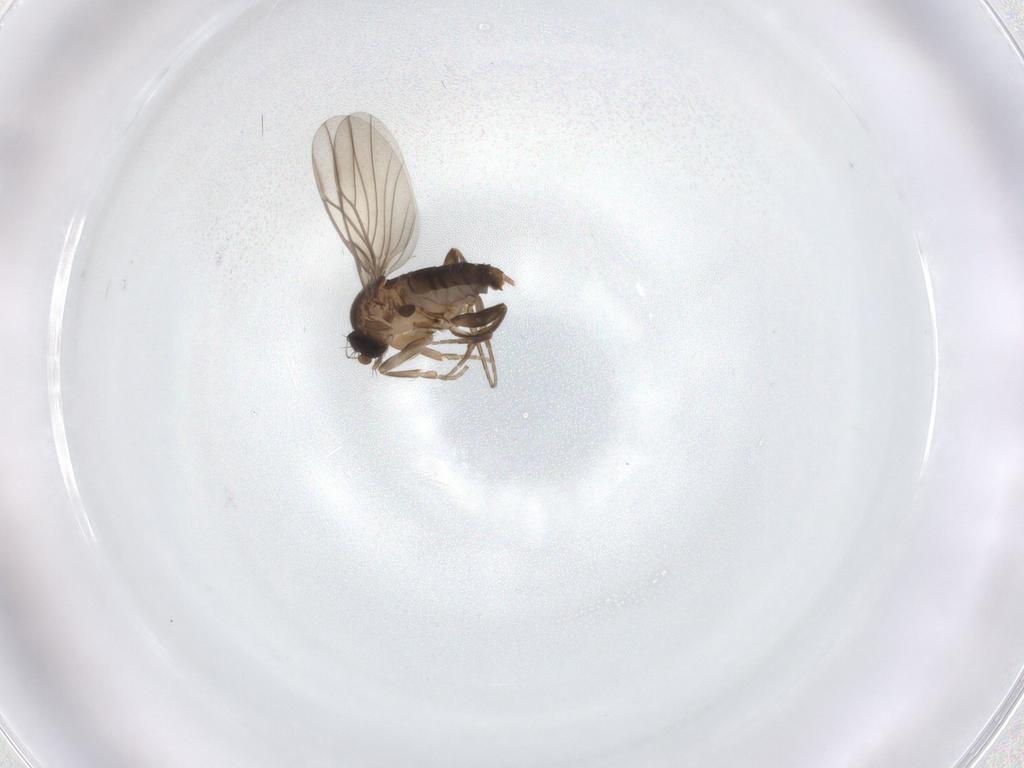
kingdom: Animalia
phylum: Arthropoda
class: Insecta
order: Diptera
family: Phoridae
